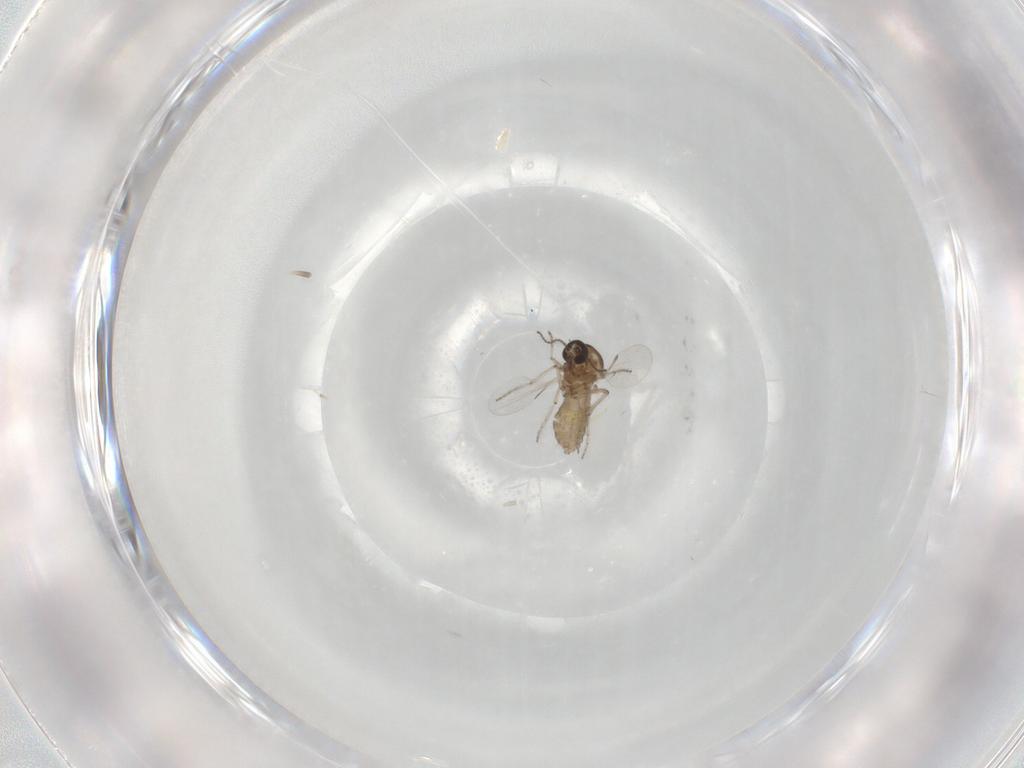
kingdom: Animalia
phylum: Arthropoda
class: Insecta
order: Diptera
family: Ceratopogonidae
